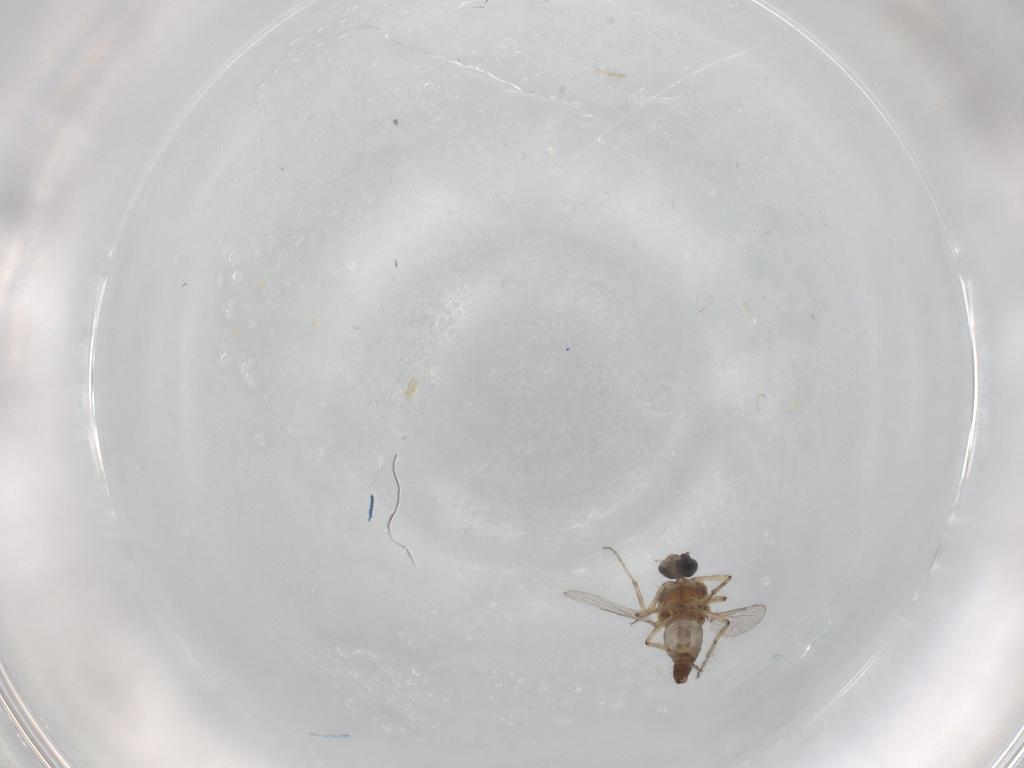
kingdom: Animalia
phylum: Arthropoda
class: Insecta
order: Diptera
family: Ceratopogonidae
